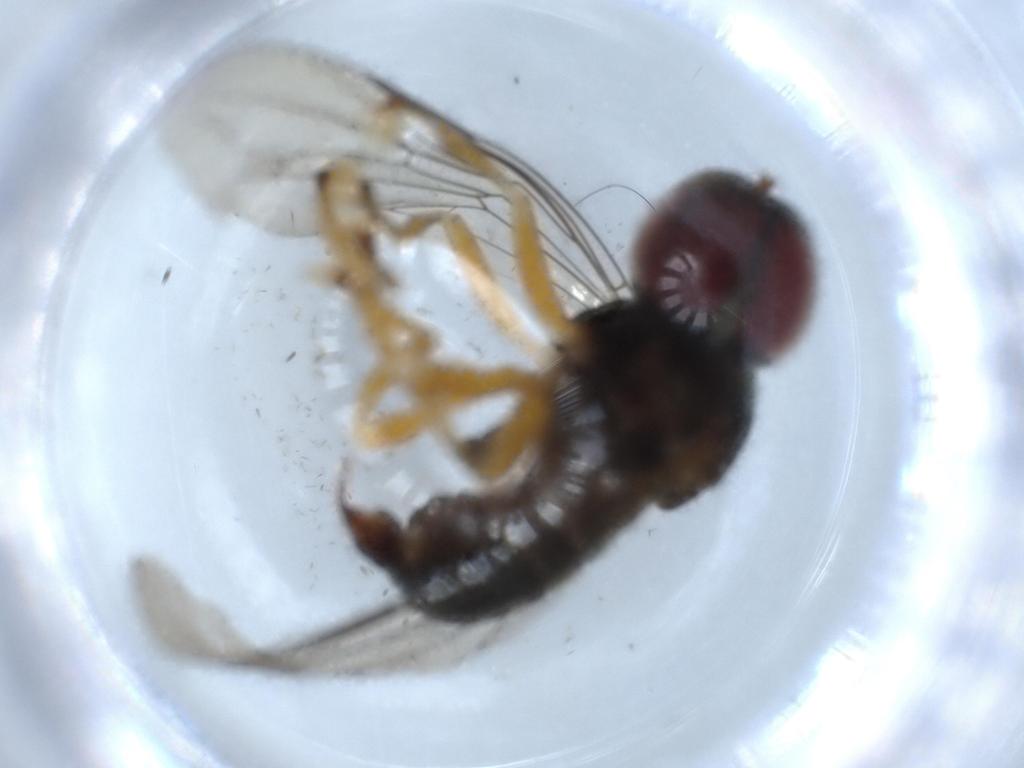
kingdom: Animalia
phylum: Arthropoda
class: Insecta
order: Diptera
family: Pipunculidae
